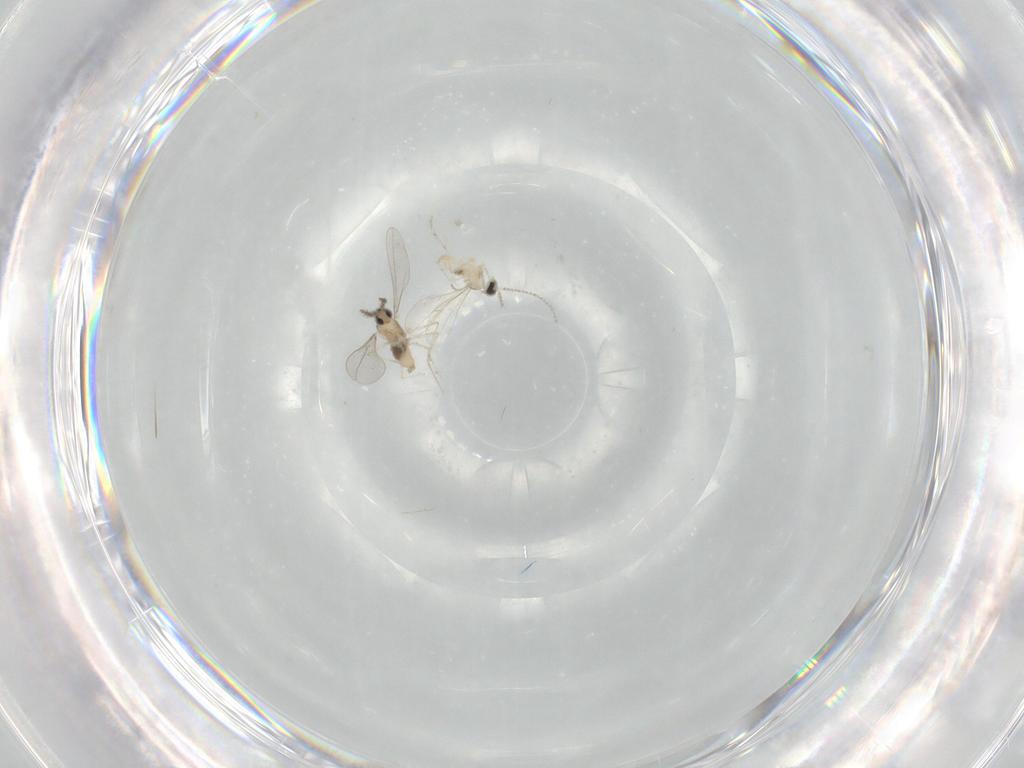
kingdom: Animalia
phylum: Arthropoda
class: Insecta
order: Diptera
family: Cecidomyiidae
